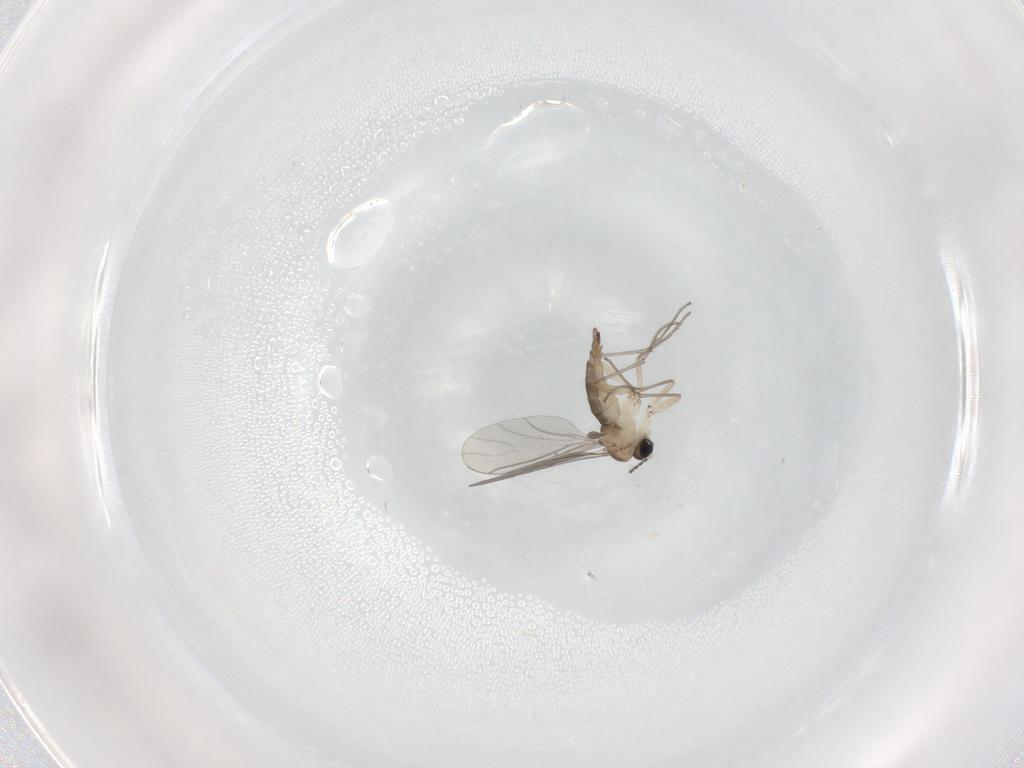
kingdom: Animalia
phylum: Arthropoda
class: Insecta
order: Diptera
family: Sciaridae
